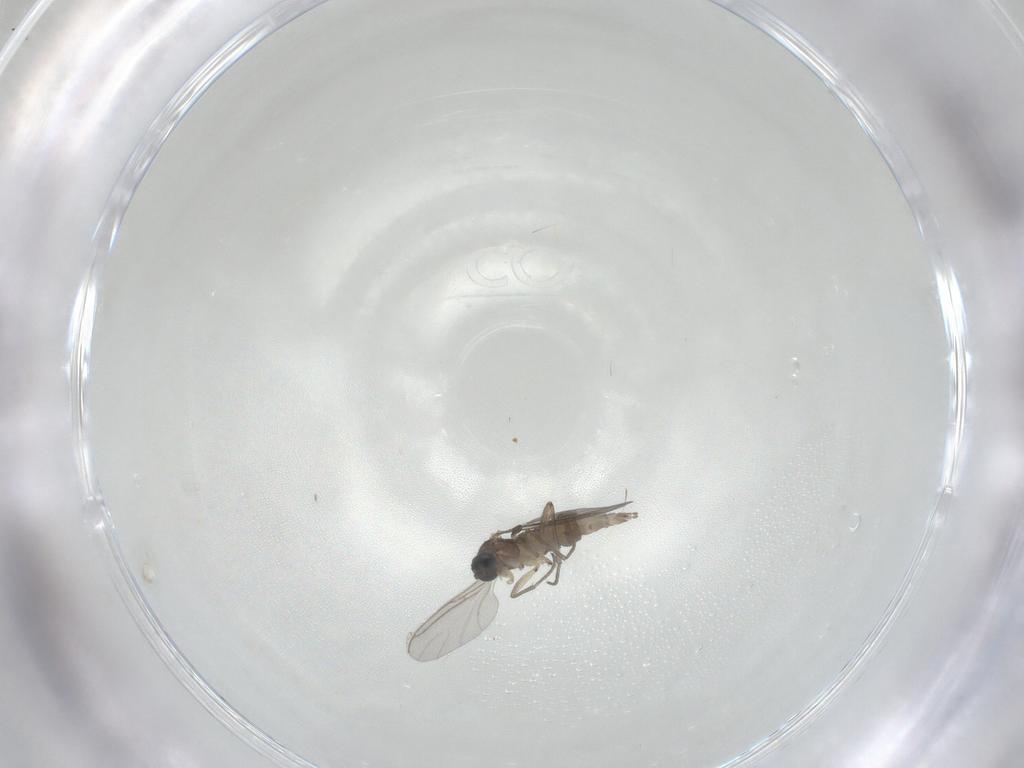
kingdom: Animalia
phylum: Arthropoda
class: Insecta
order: Diptera
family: Sciaridae
